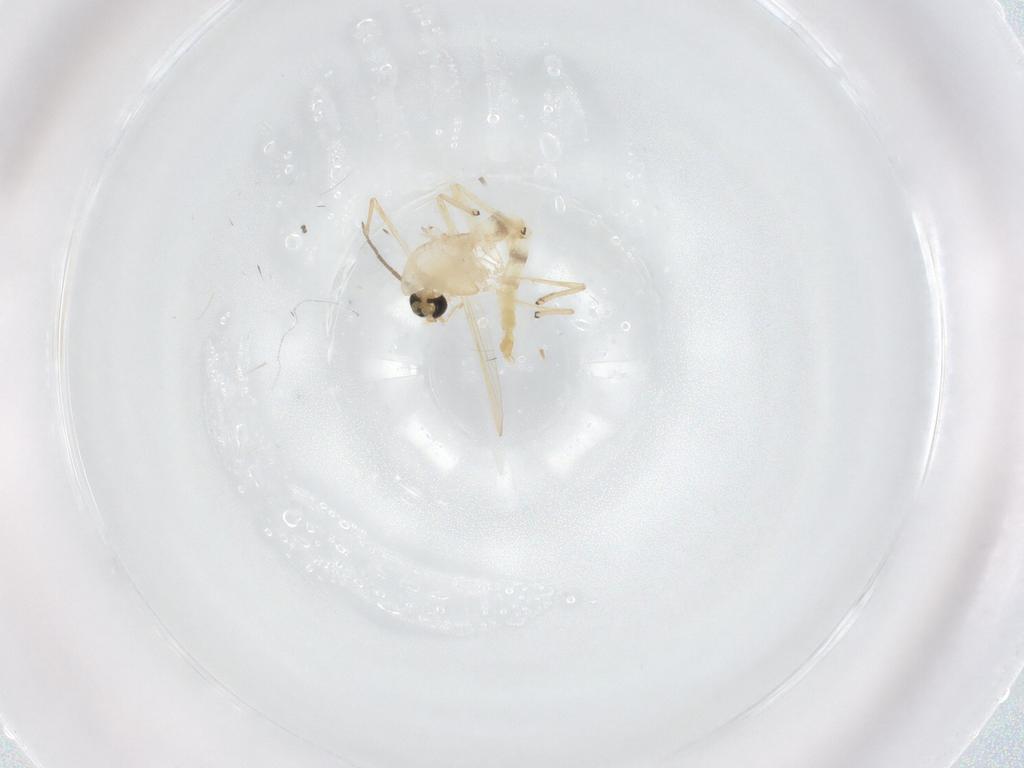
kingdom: Animalia
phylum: Arthropoda
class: Insecta
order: Diptera
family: Chironomidae
